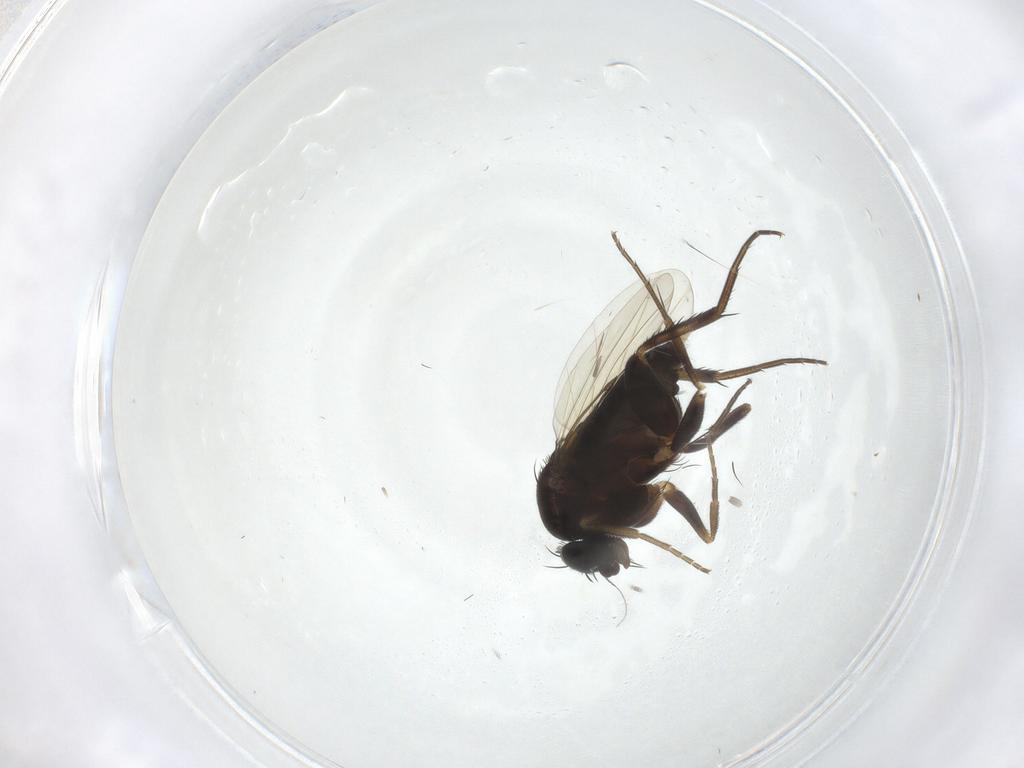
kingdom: Animalia
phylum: Arthropoda
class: Insecta
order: Diptera
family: Phoridae
